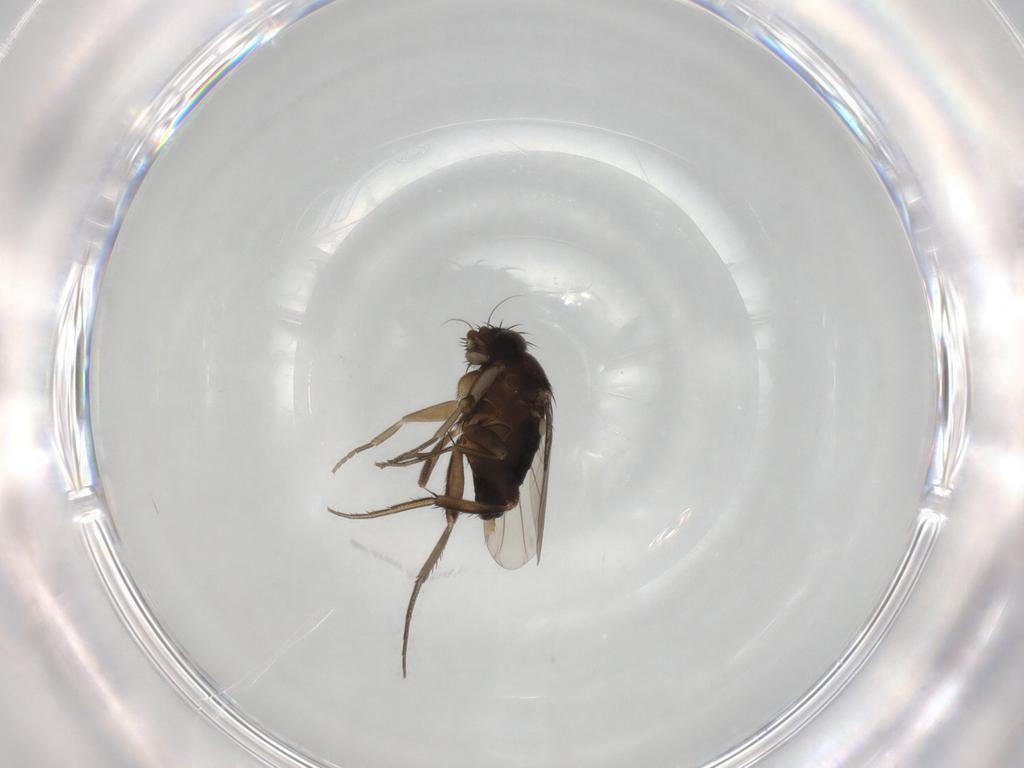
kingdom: Animalia
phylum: Arthropoda
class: Insecta
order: Diptera
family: Phoridae
